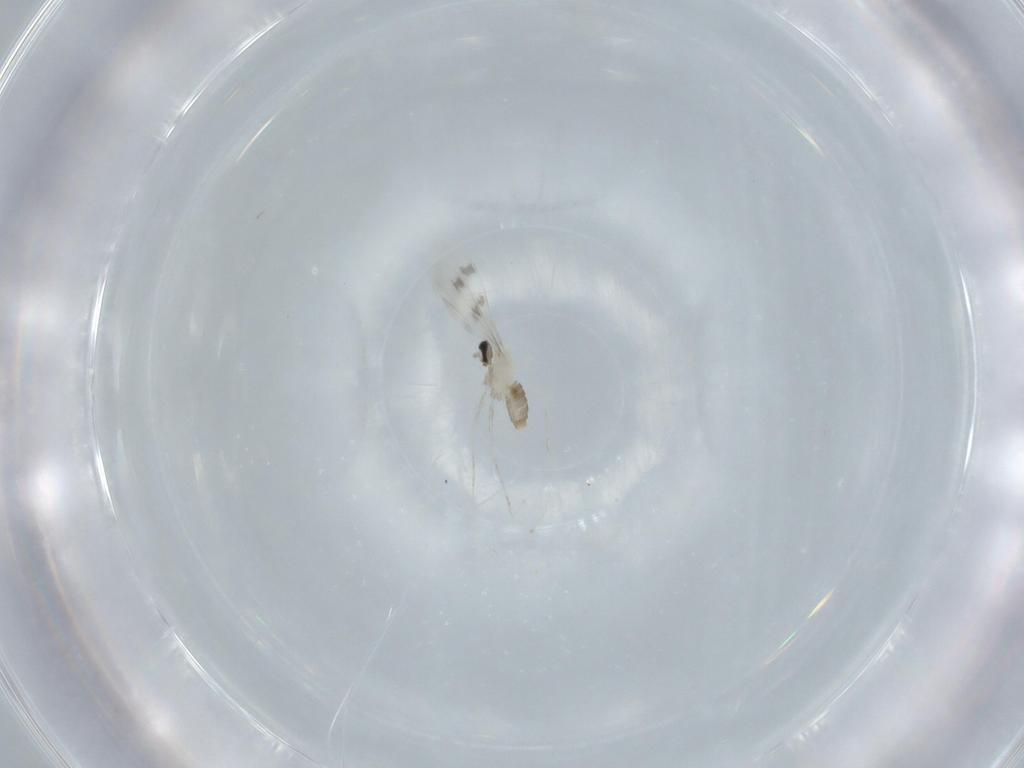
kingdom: Animalia
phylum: Arthropoda
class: Insecta
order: Diptera
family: Cecidomyiidae
